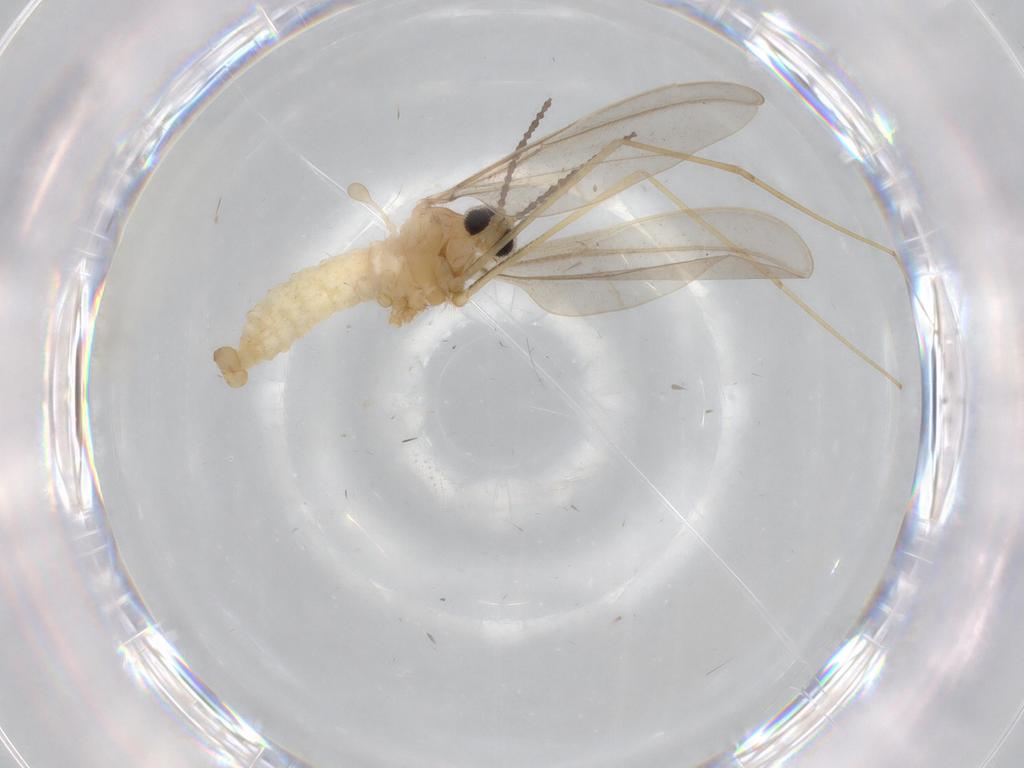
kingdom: Animalia
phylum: Arthropoda
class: Insecta
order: Diptera
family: Cecidomyiidae
